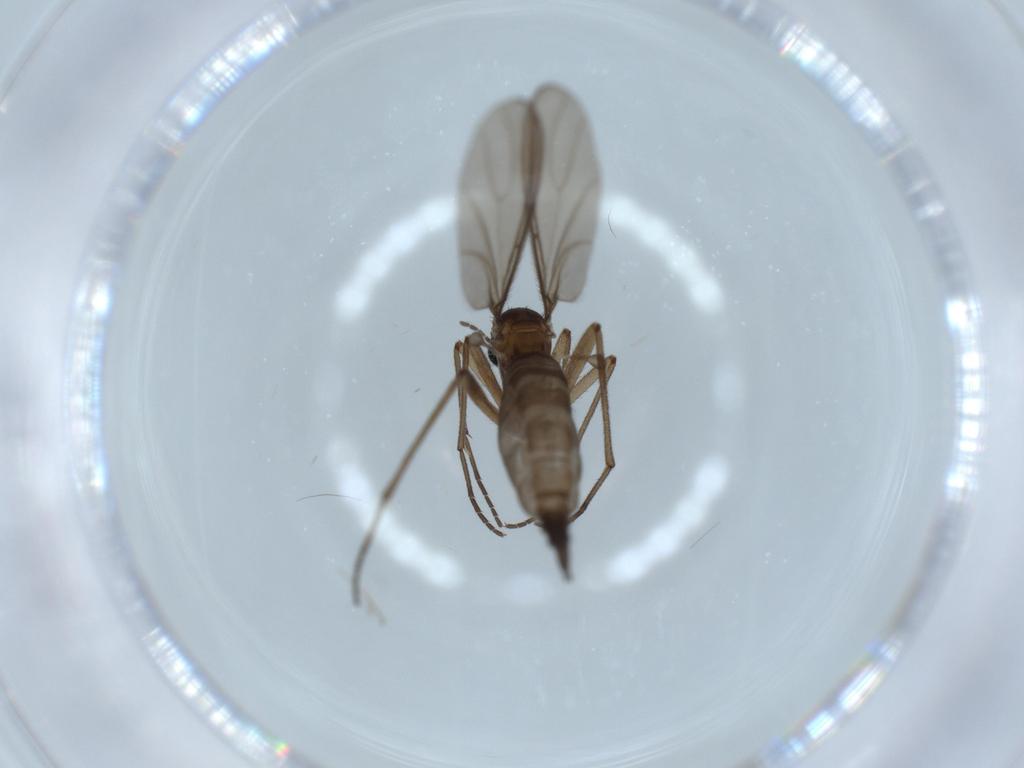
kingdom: Animalia
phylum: Arthropoda
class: Insecta
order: Diptera
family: Sciaridae
